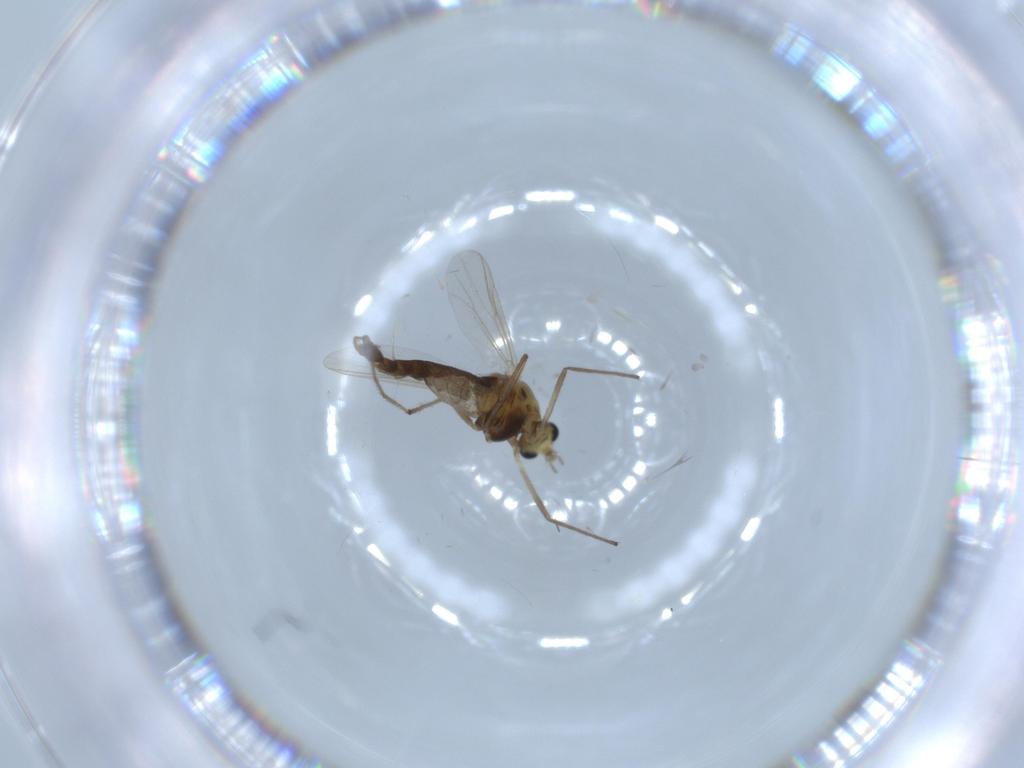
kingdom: Animalia
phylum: Arthropoda
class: Insecta
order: Diptera
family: Chironomidae
